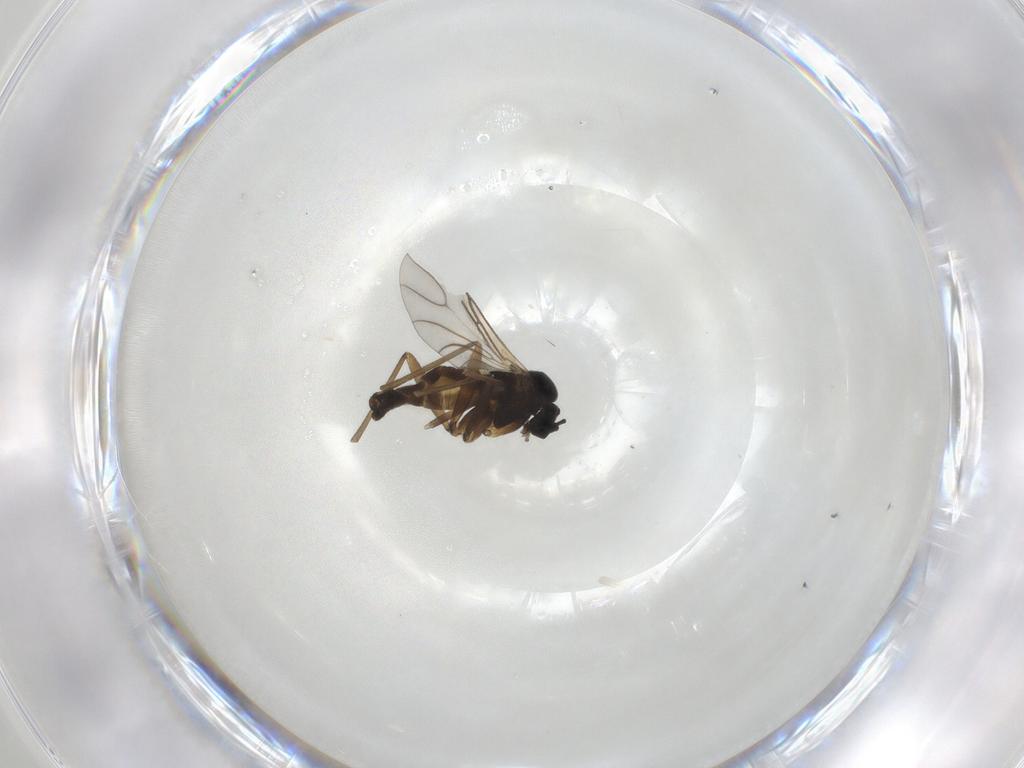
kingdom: Animalia
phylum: Arthropoda
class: Insecta
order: Diptera
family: Sciaridae
